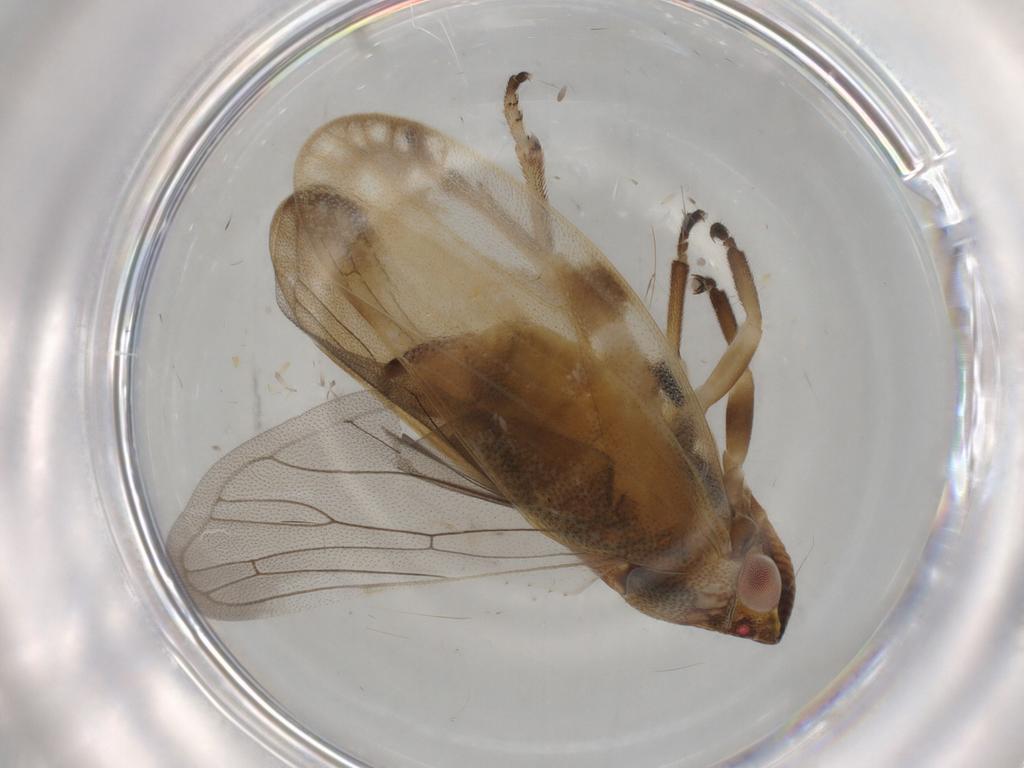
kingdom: Animalia
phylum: Arthropoda
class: Insecta
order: Hemiptera
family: Aphrophoridae
